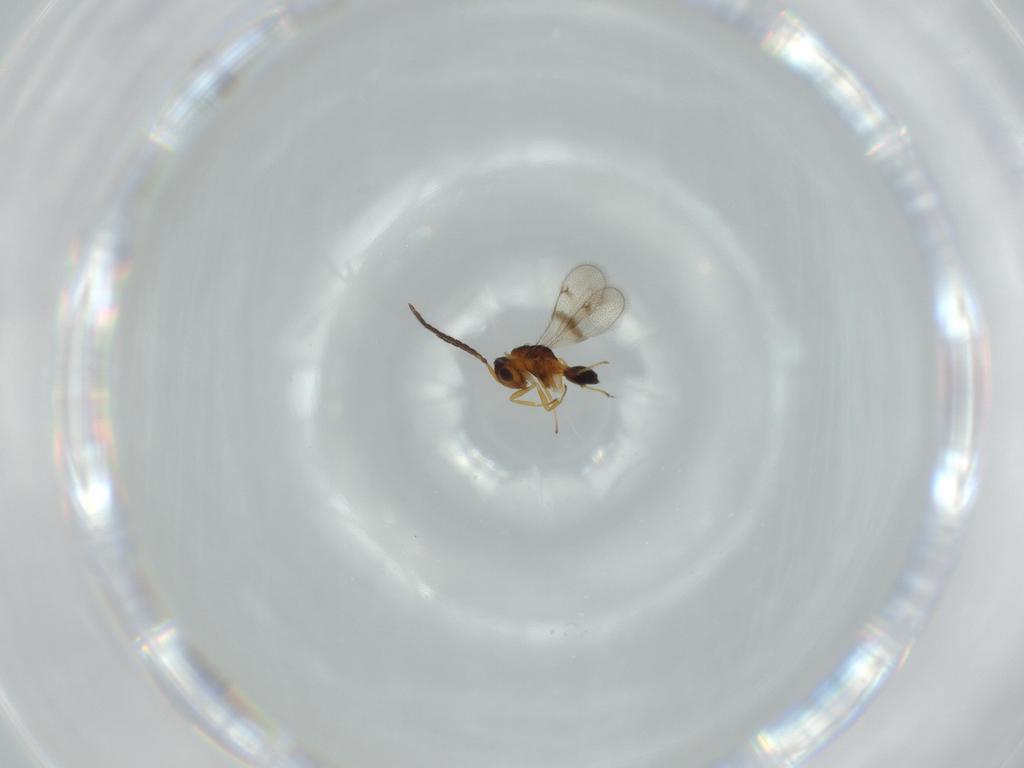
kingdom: Animalia
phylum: Arthropoda
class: Insecta
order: Hymenoptera
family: Diparidae
